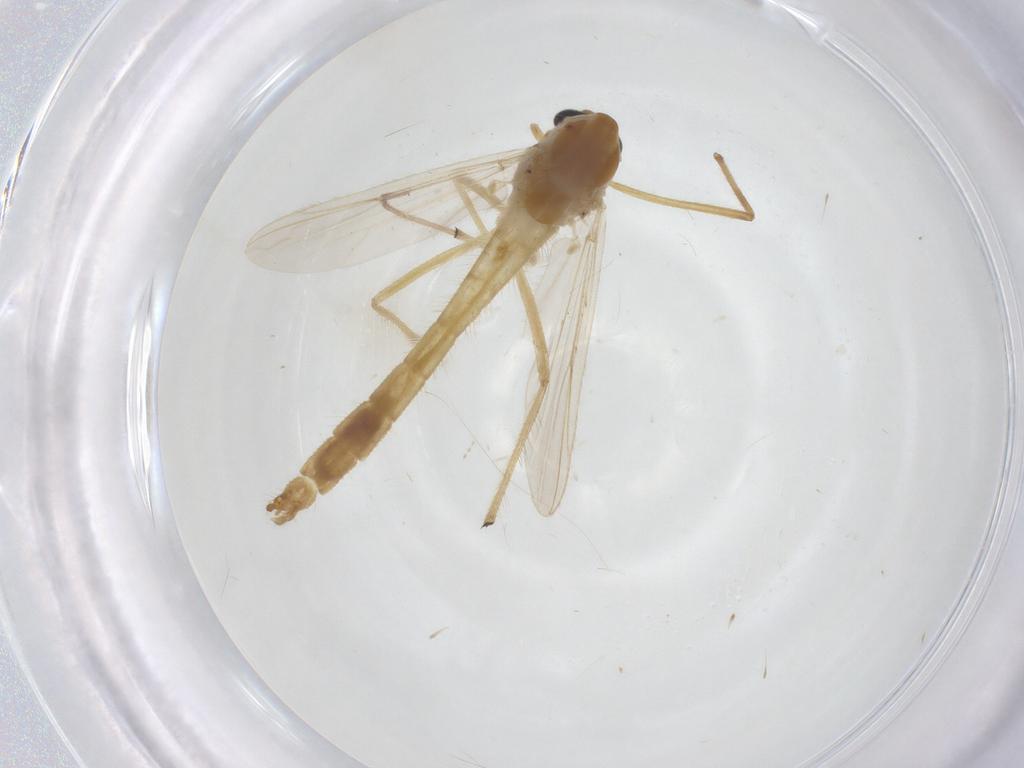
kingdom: Animalia
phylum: Arthropoda
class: Insecta
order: Diptera
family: Chironomidae
